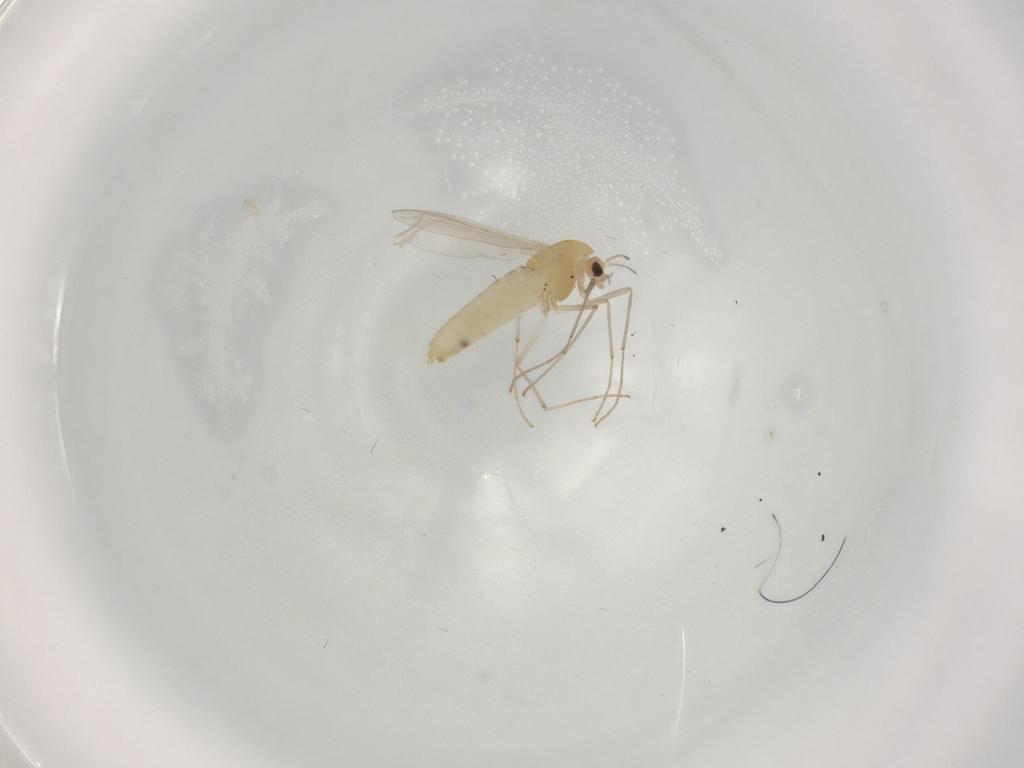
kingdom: Animalia
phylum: Arthropoda
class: Insecta
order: Diptera
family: Chironomidae
